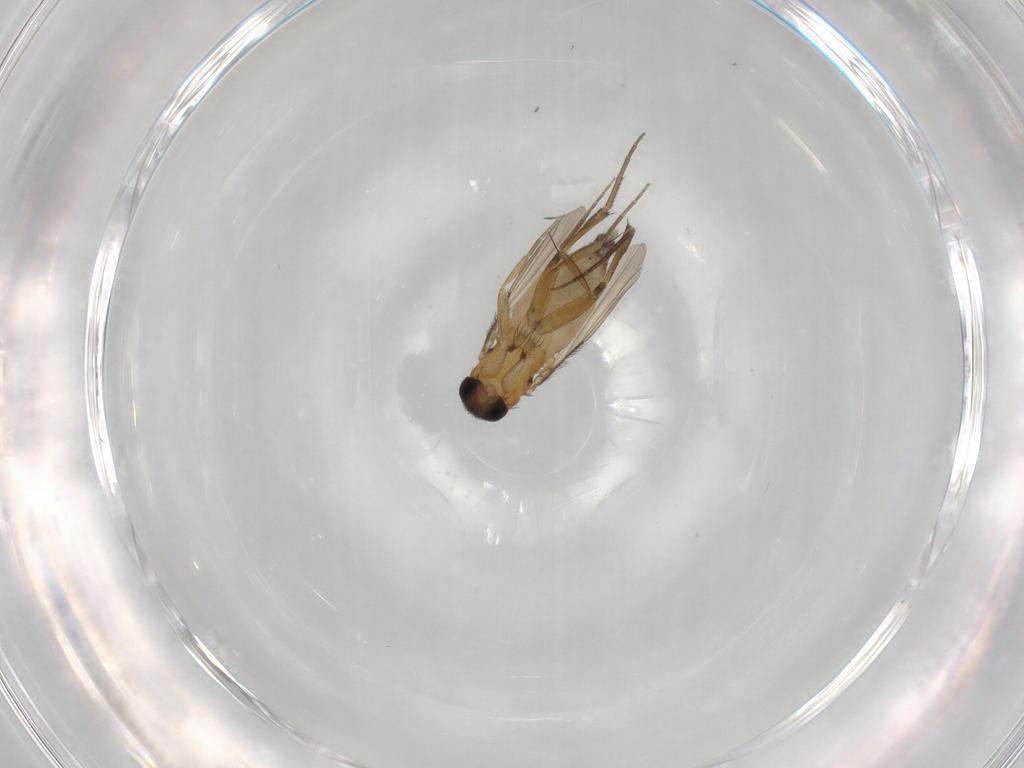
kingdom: Animalia
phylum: Arthropoda
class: Insecta
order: Diptera
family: Phoridae
